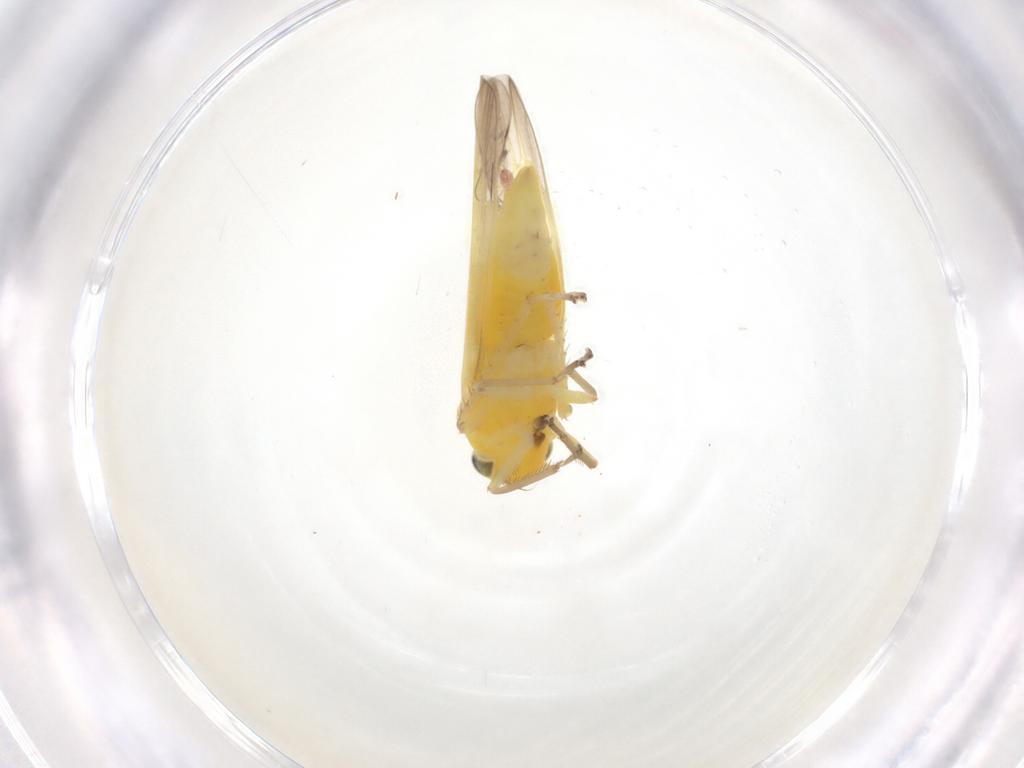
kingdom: Animalia
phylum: Arthropoda
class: Insecta
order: Hemiptera
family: Cicadellidae
